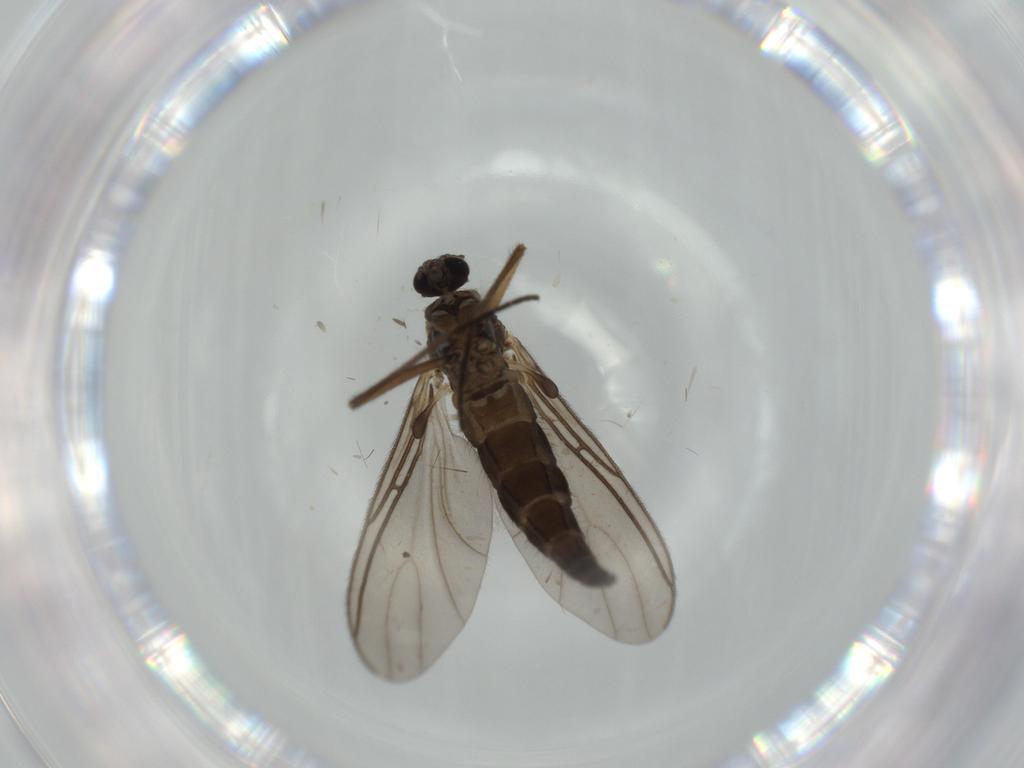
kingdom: Animalia
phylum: Arthropoda
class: Insecta
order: Diptera
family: Sciaridae
